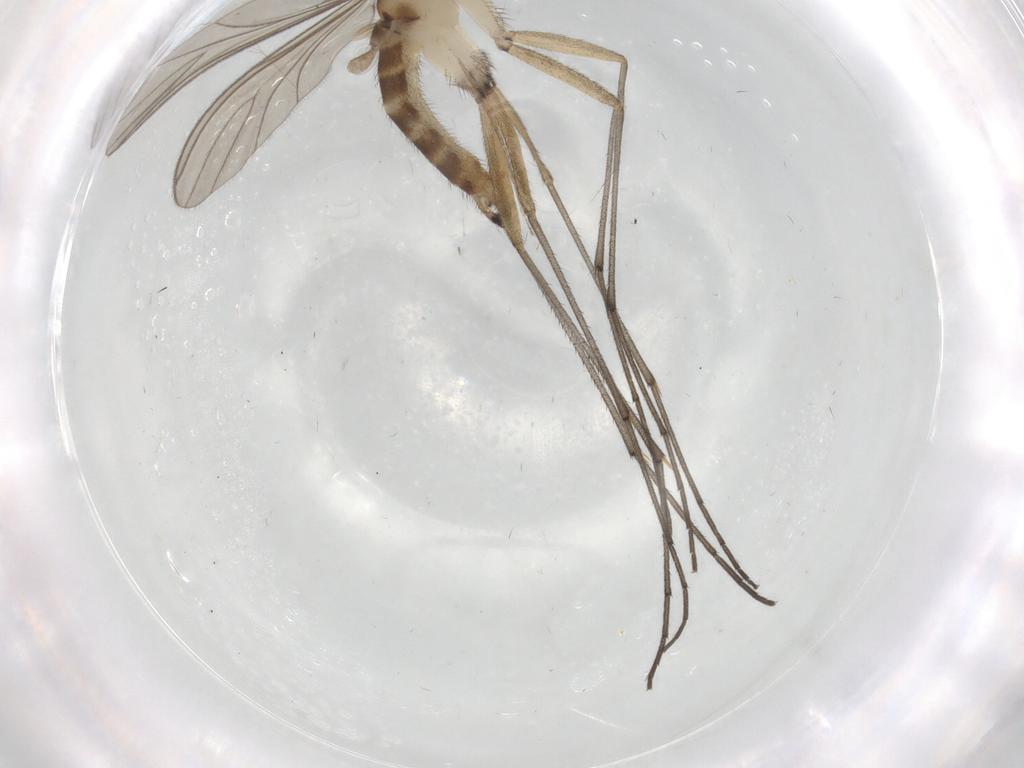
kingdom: Animalia
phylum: Arthropoda
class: Insecta
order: Diptera
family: Sciaridae
